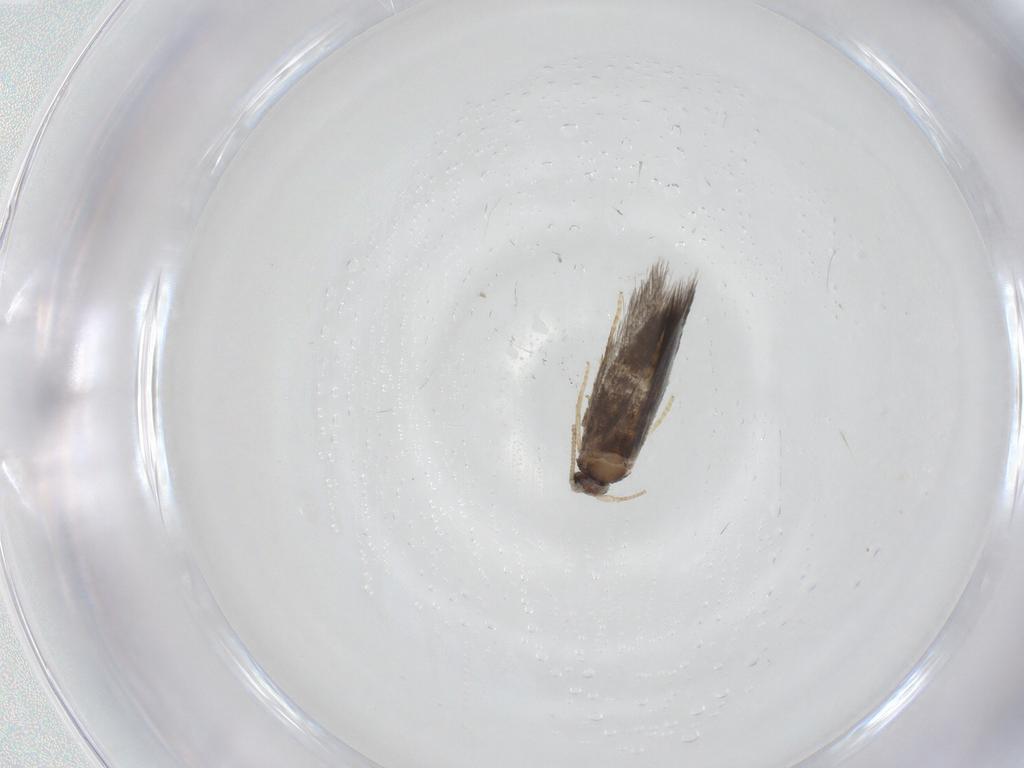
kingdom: Animalia
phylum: Arthropoda
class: Insecta
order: Lepidoptera
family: Nepticulidae
